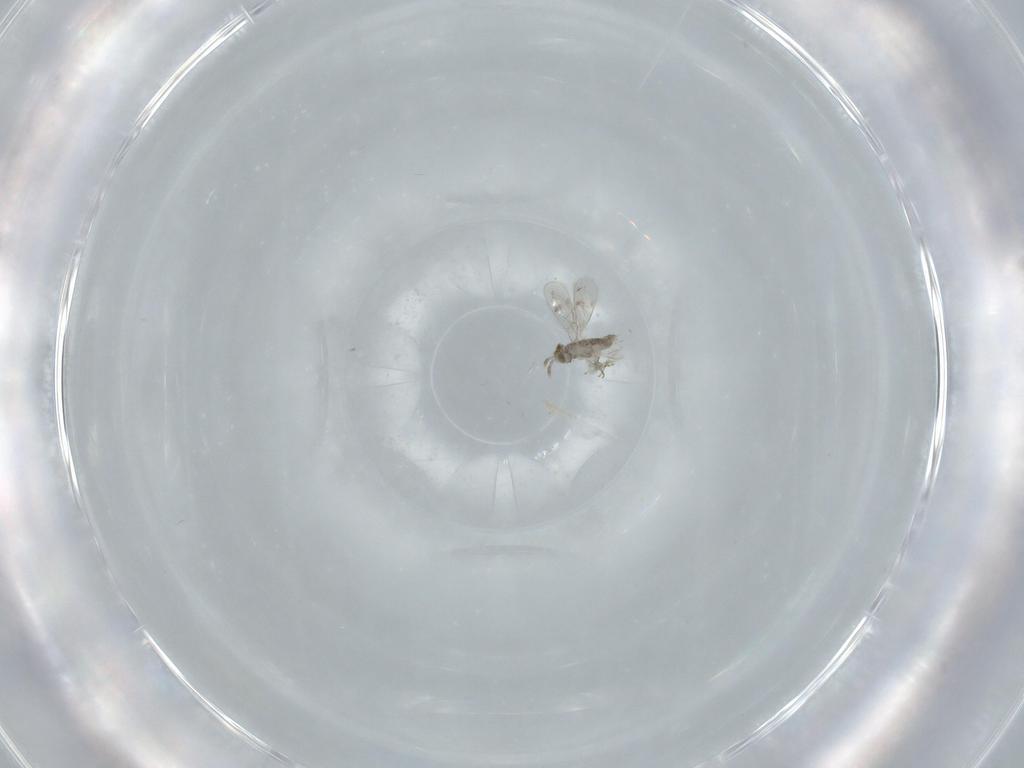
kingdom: Animalia
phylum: Arthropoda
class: Insecta
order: Hymenoptera
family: Aphelinidae
